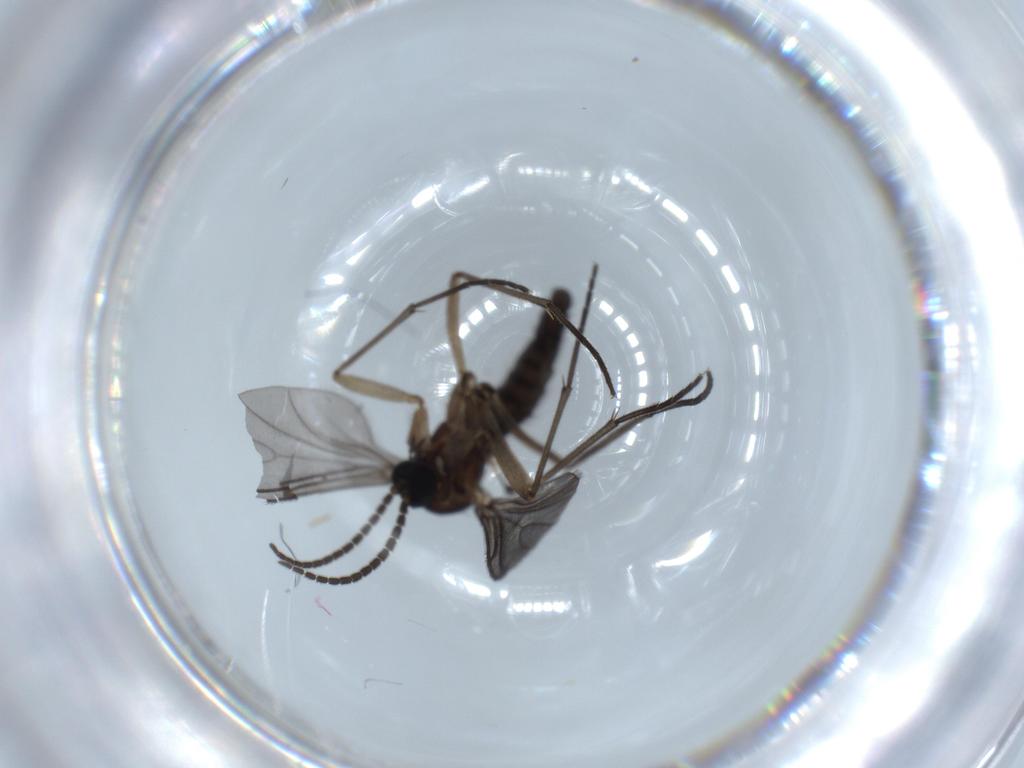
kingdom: Animalia
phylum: Arthropoda
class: Insecta
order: Diptera
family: Sciaridae
